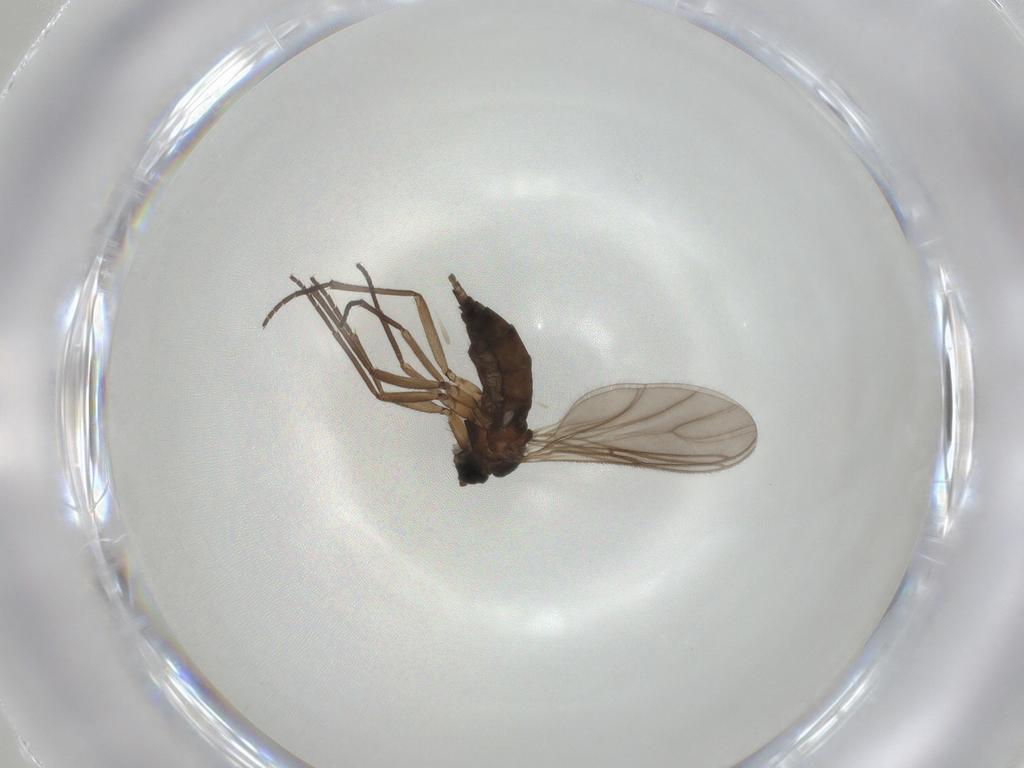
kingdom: Animalia
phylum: Arthropoda
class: Insecta
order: Diptera
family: Sciaridae
